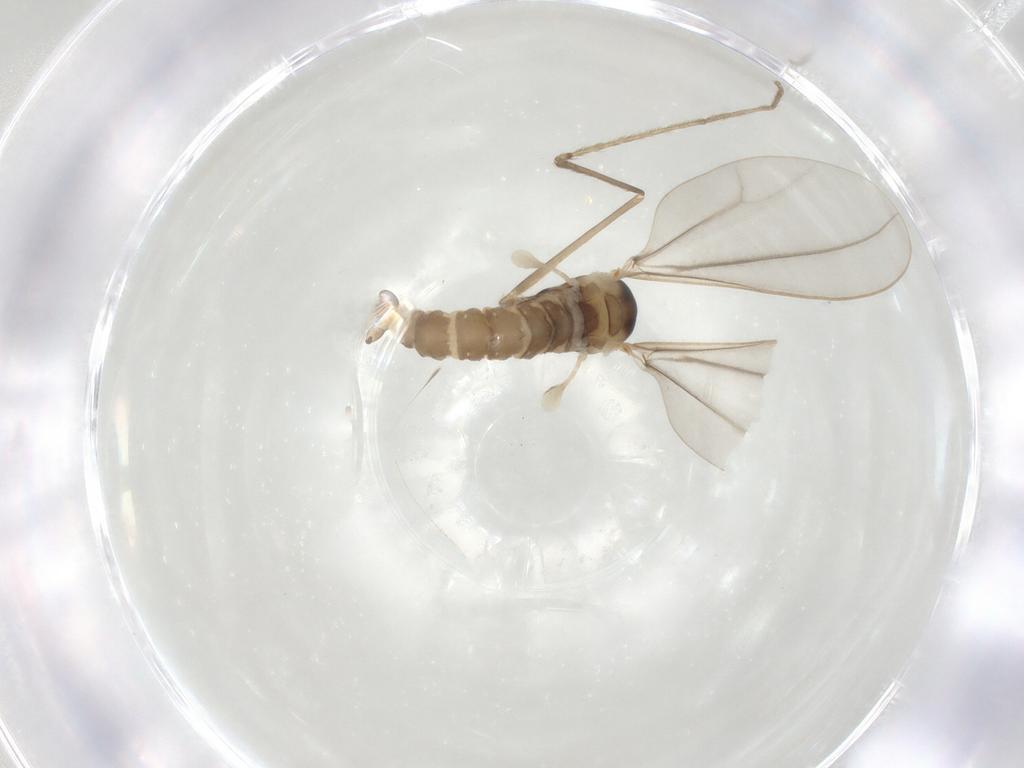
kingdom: Animalia
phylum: Arthropoda
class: Insecta
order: Diptera
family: Cecidomyiidae
